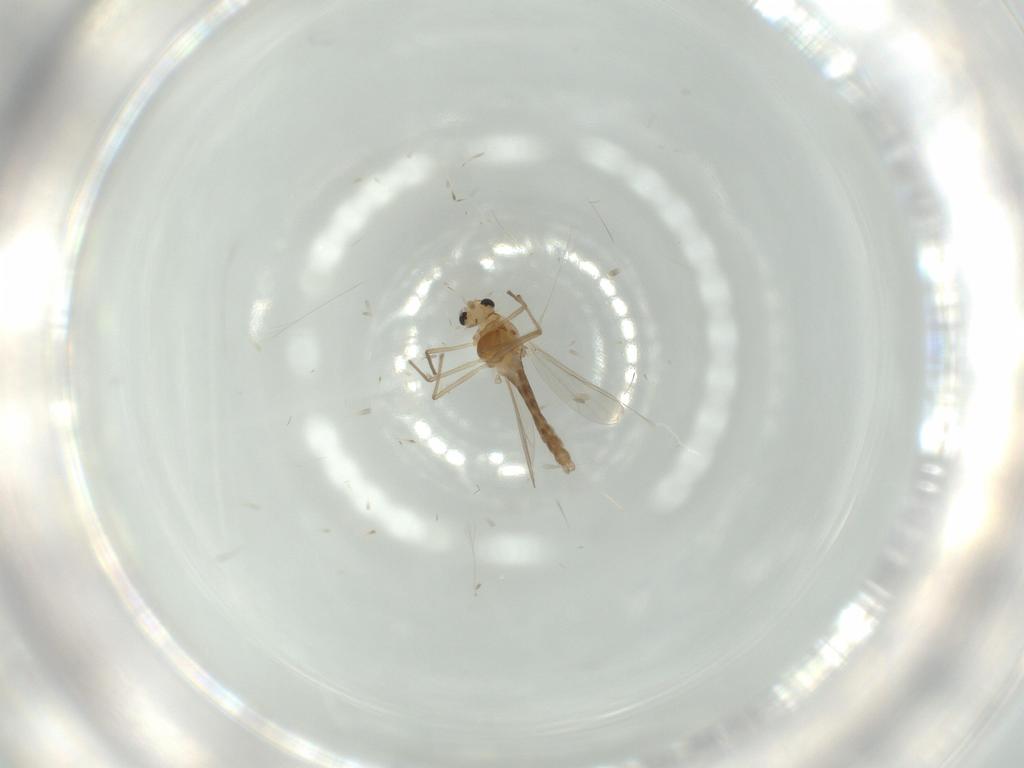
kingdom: Animalia
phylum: Arthropoda
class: Insecta
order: Diptera
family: Chironomidae
